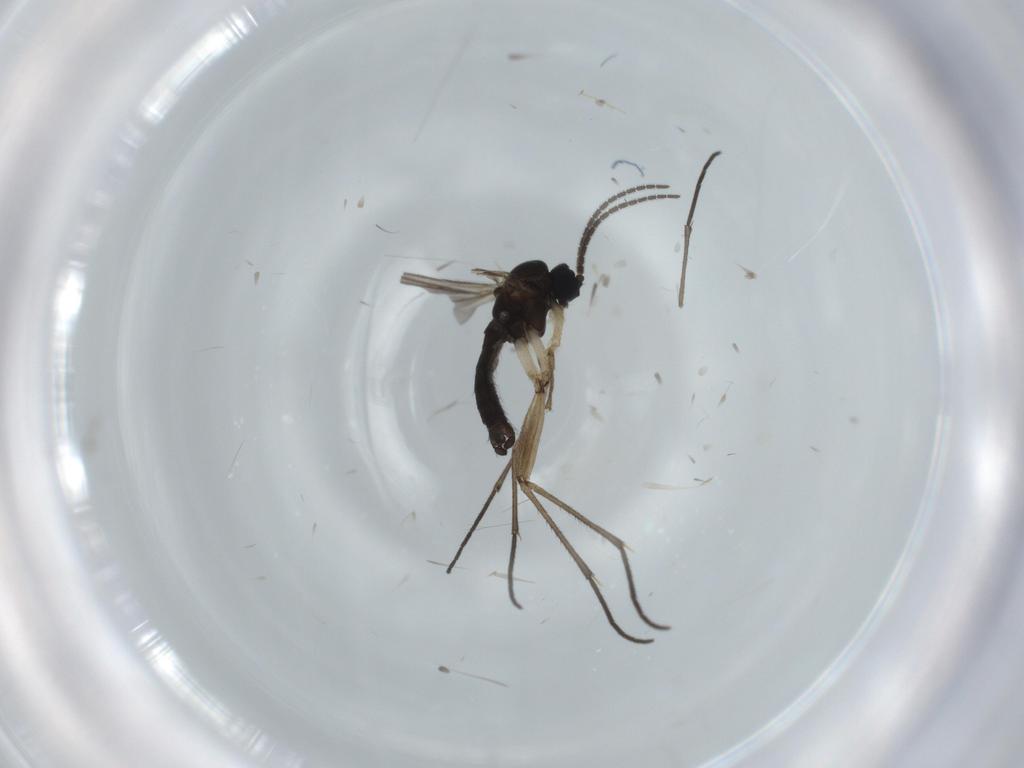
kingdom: Animalia
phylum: Arthropoda
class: Insecta
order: Diptera
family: Sciaridae
